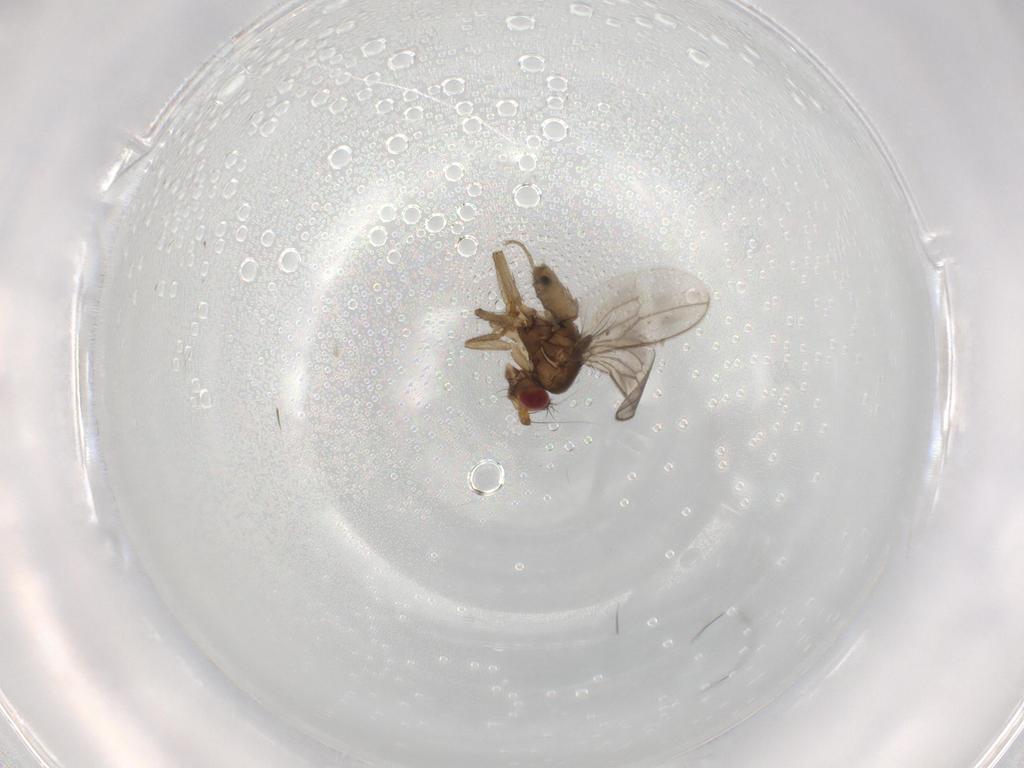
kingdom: Animalia
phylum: Arthropoda
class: Insecta
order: Diptera
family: Sphaeroceridae
